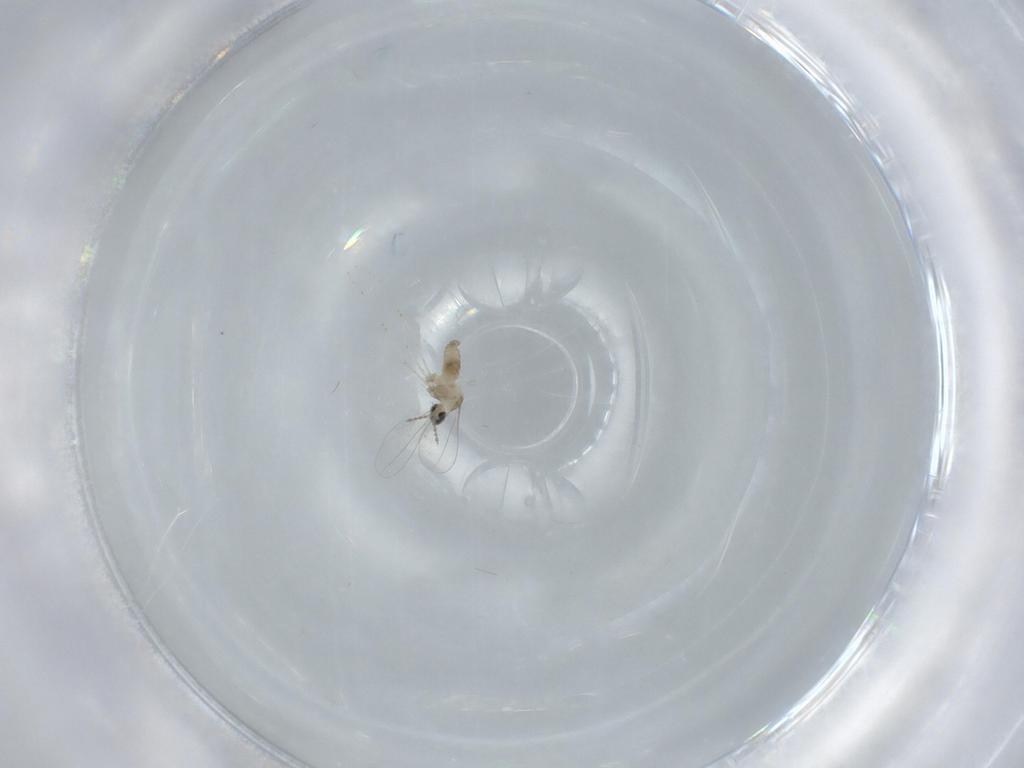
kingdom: Animalia
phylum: Arthropoda
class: Insecta
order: Diptera
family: Cecidomyiidae
